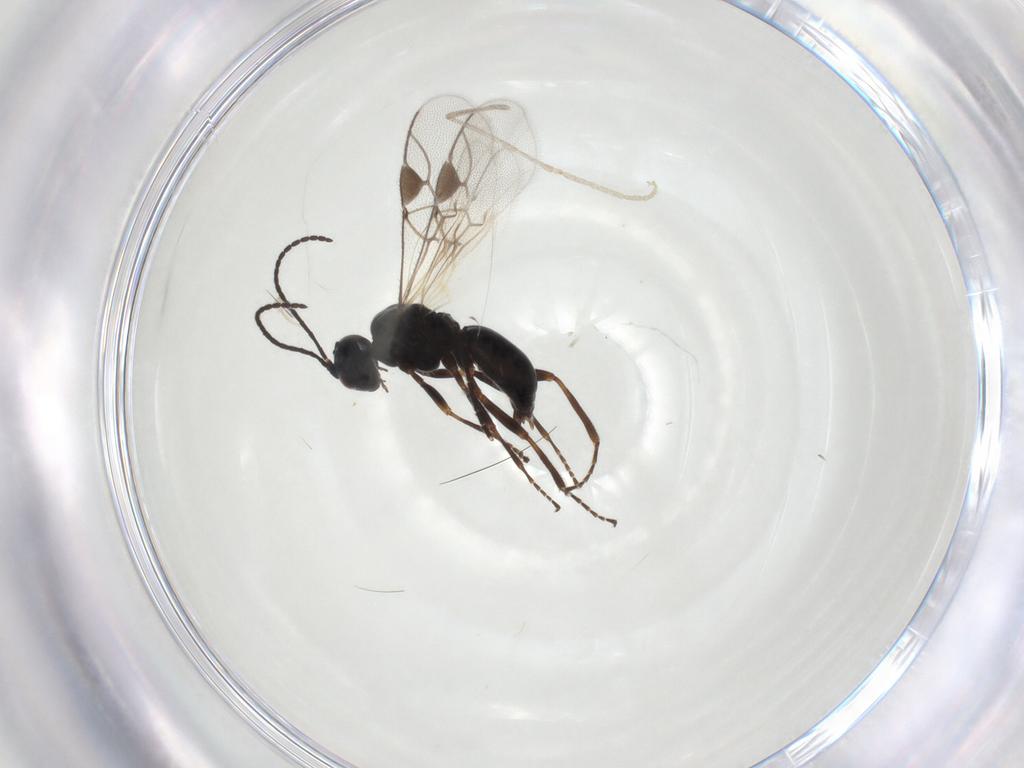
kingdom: Animalia
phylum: Arthropoda
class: Insecta
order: Hymenoptera
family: Braconidae
